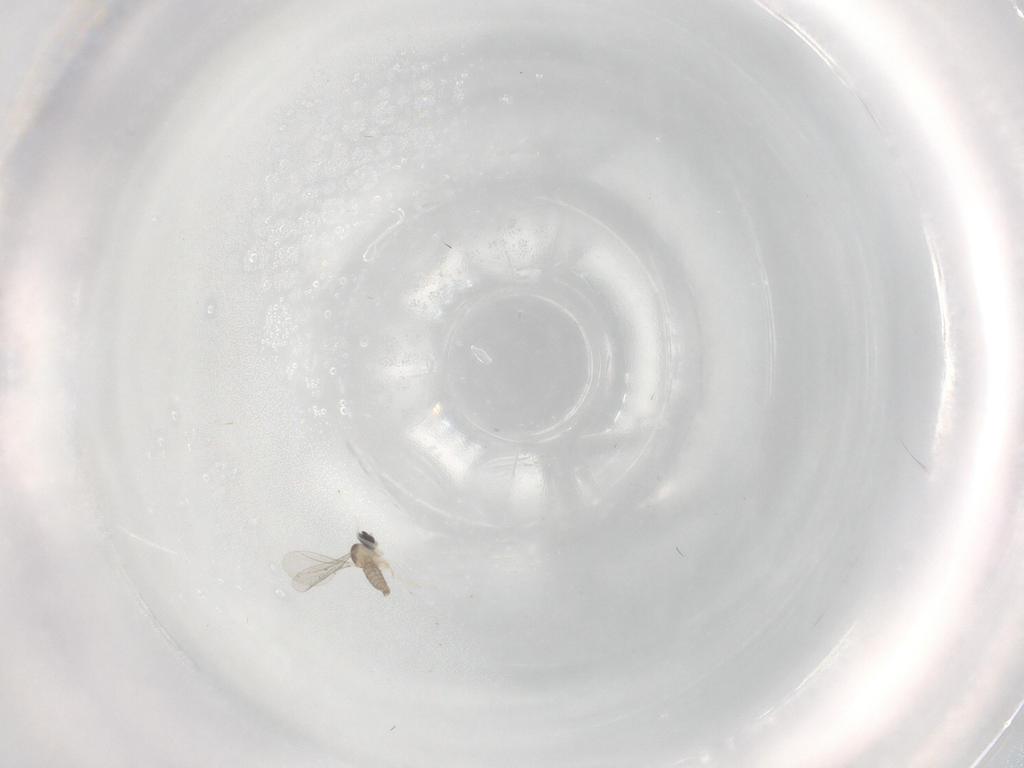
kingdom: Animalia
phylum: Arthropoda
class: Insecta
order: Diptera
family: Cecidomyiidae
